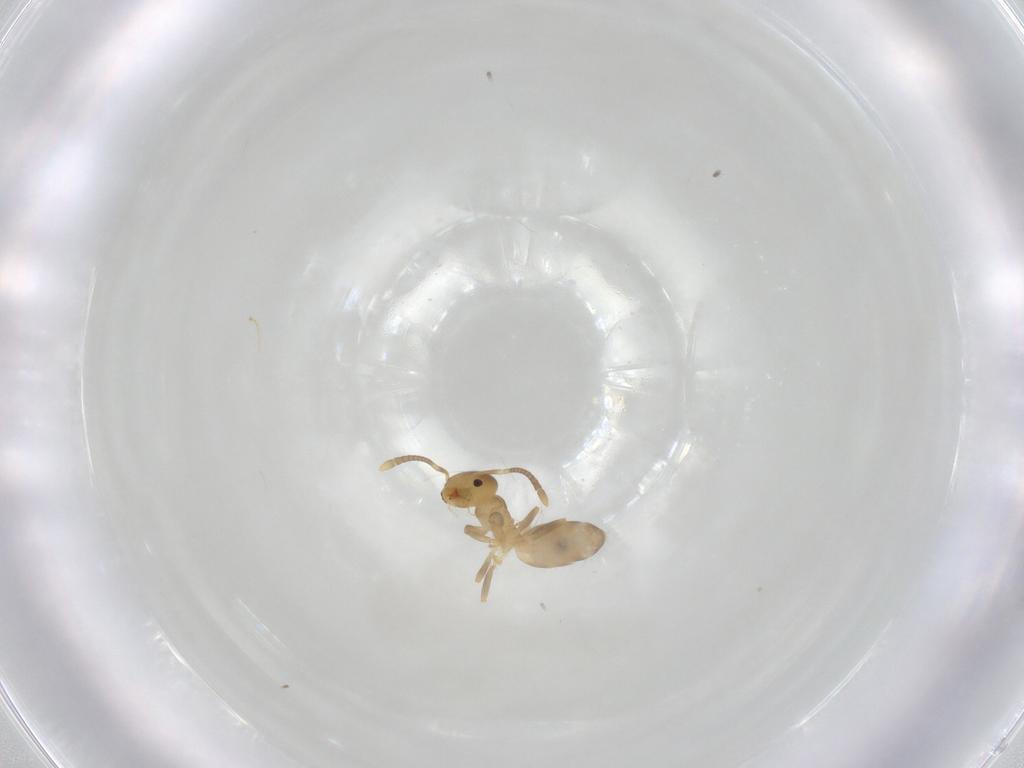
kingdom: Animalia
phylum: Arthropoda
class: Insecta
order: Hymenoptera
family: Formicidae
